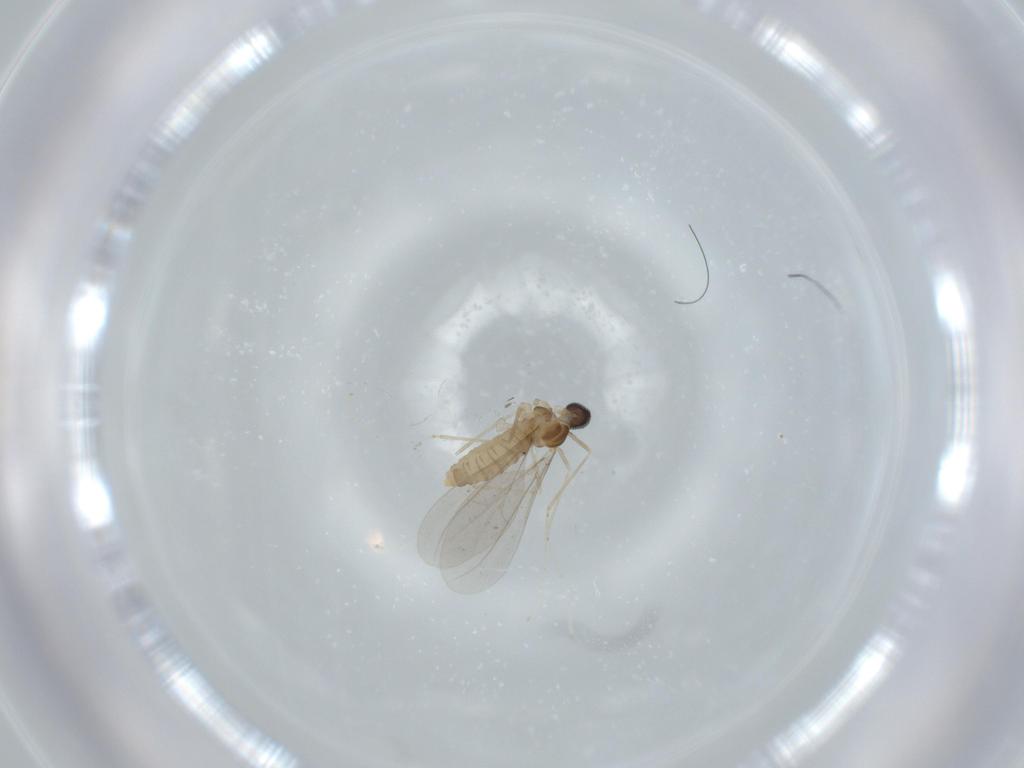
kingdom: Animalia
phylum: Arthropoda
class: Insecta
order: Diptera
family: Cecidomyiidae
